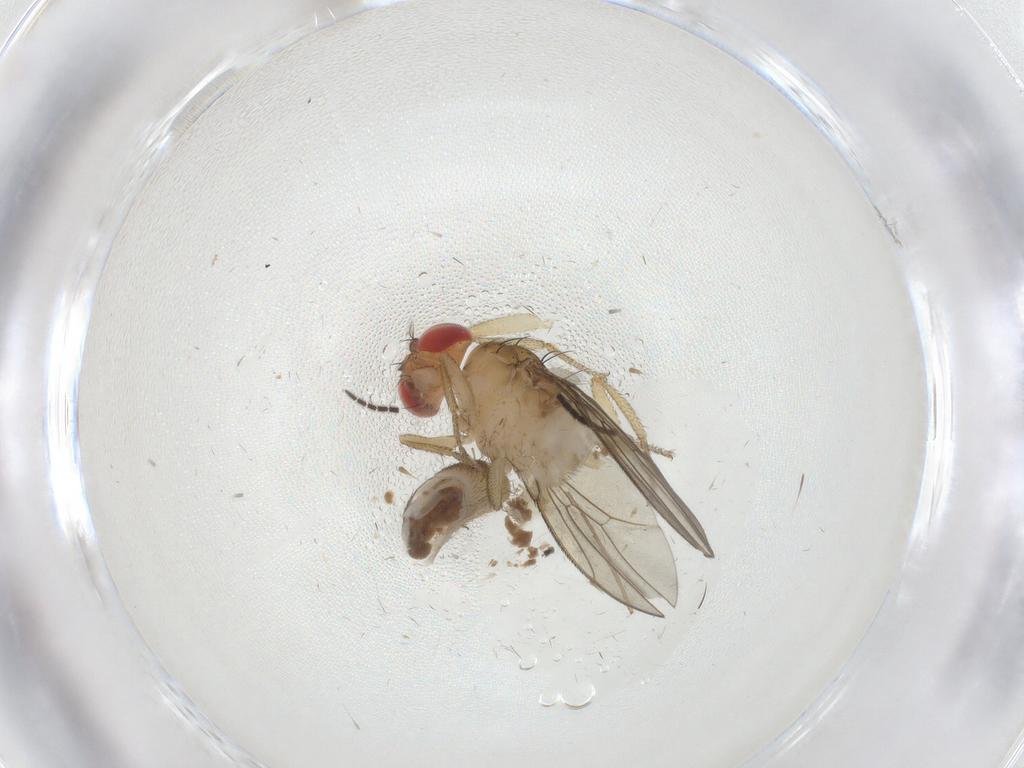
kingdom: Animalia
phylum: Arthropoda
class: Insecta
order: Diptera
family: Drosophilidae
